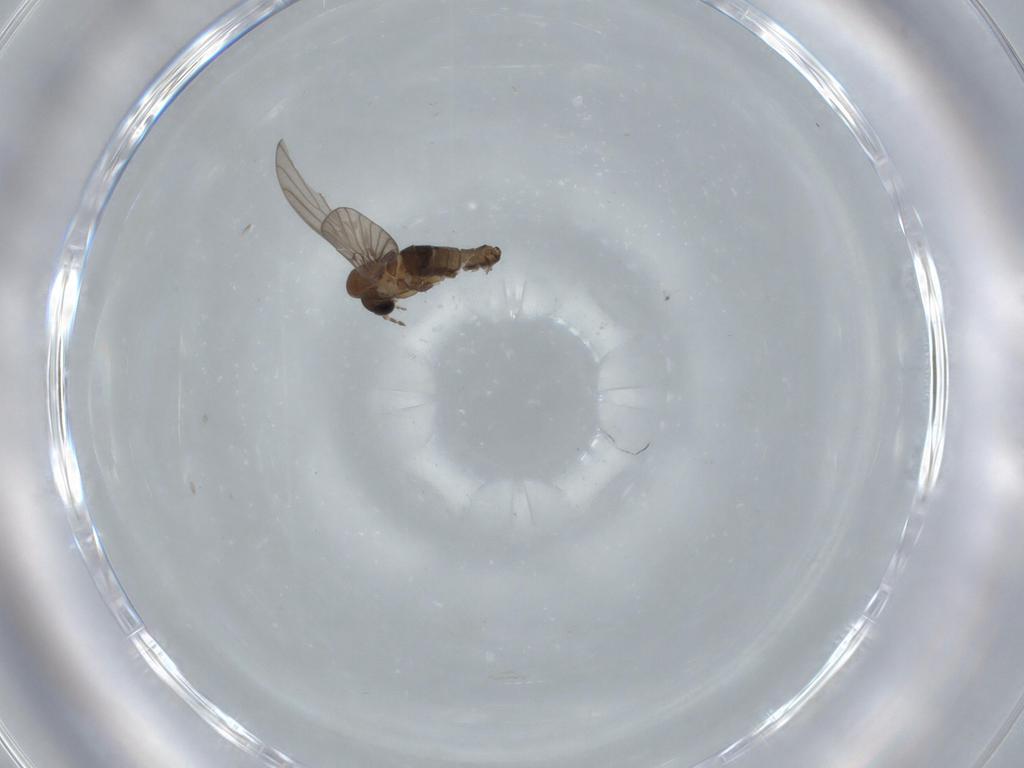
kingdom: Animalia
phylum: Arthropoda
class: Insecta
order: Diptera
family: Psychodidae
